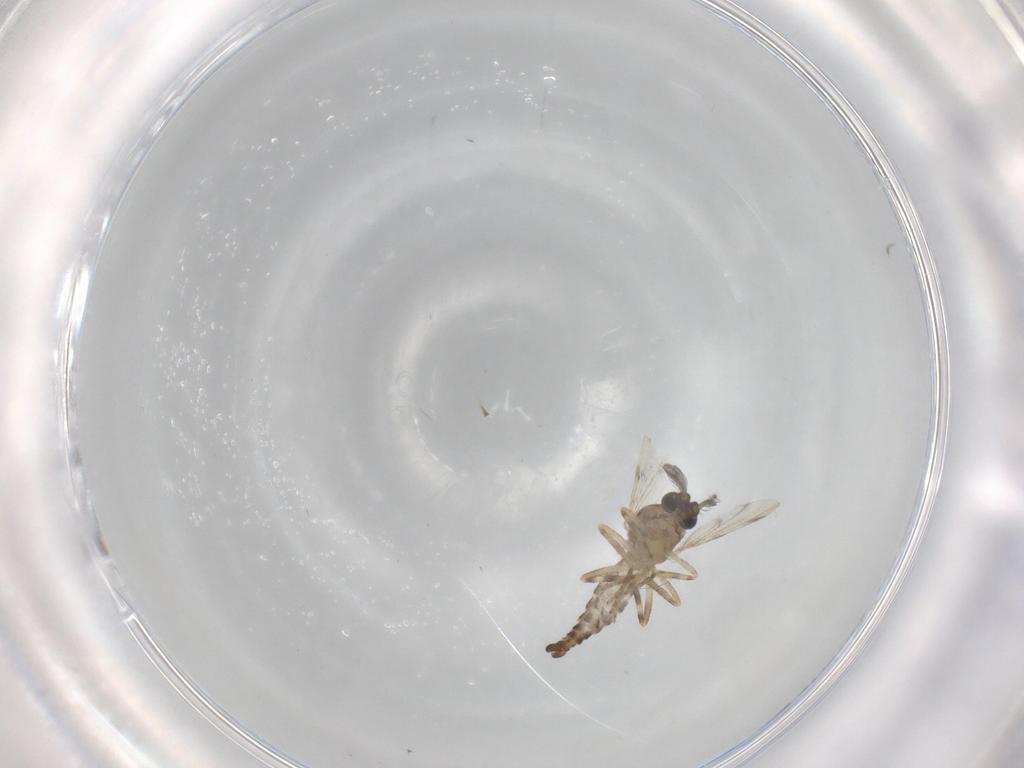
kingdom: Animalia
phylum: Arthropoda
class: Insecta
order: Diptera
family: Ceratopogonidae
